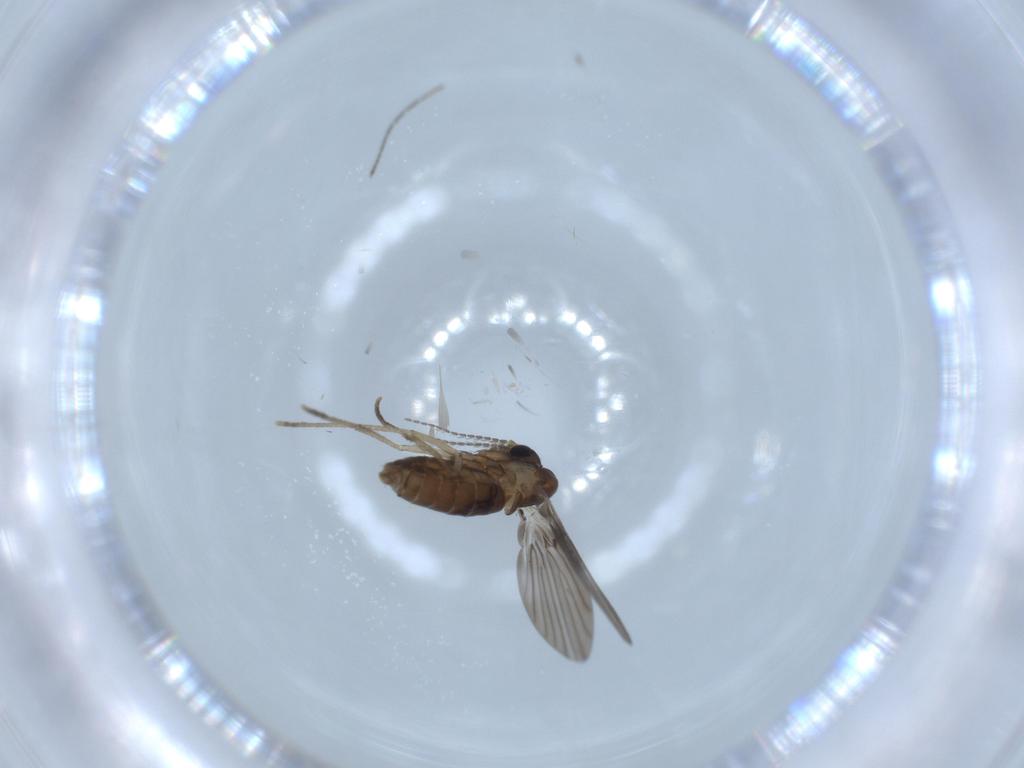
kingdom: Animalia
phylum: Arthropoda
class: Insecta
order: Diptera
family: Psychodidae
